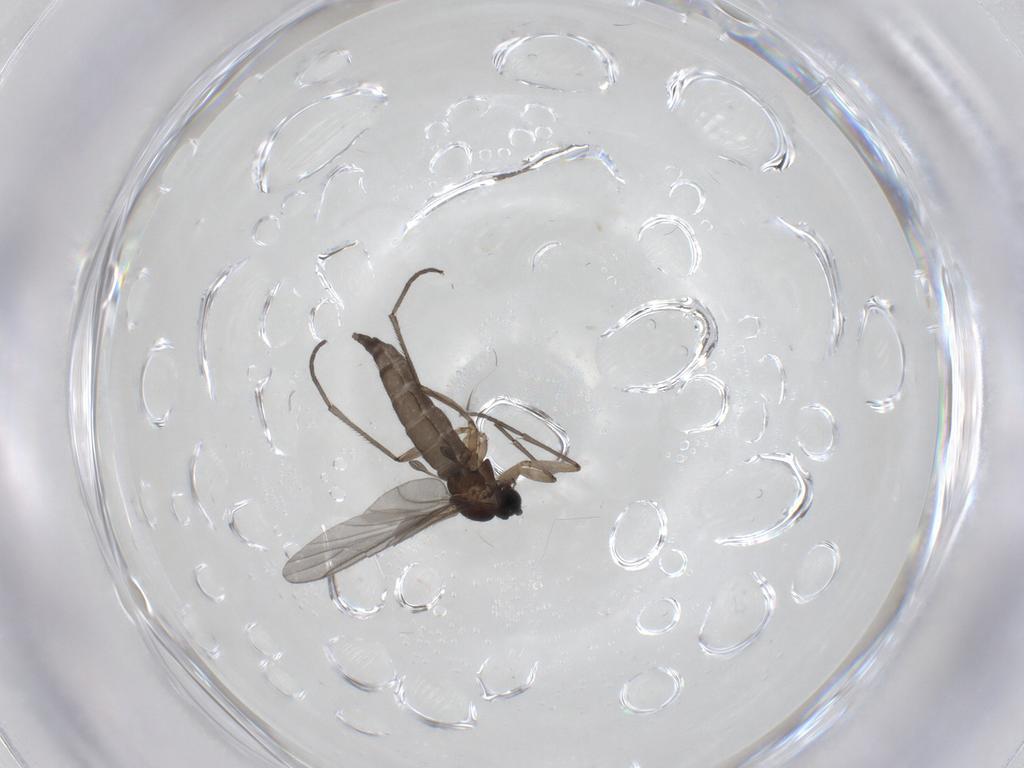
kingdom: Animalia
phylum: Arthropoda
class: Insecta
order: Diptera
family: Sciaridae
